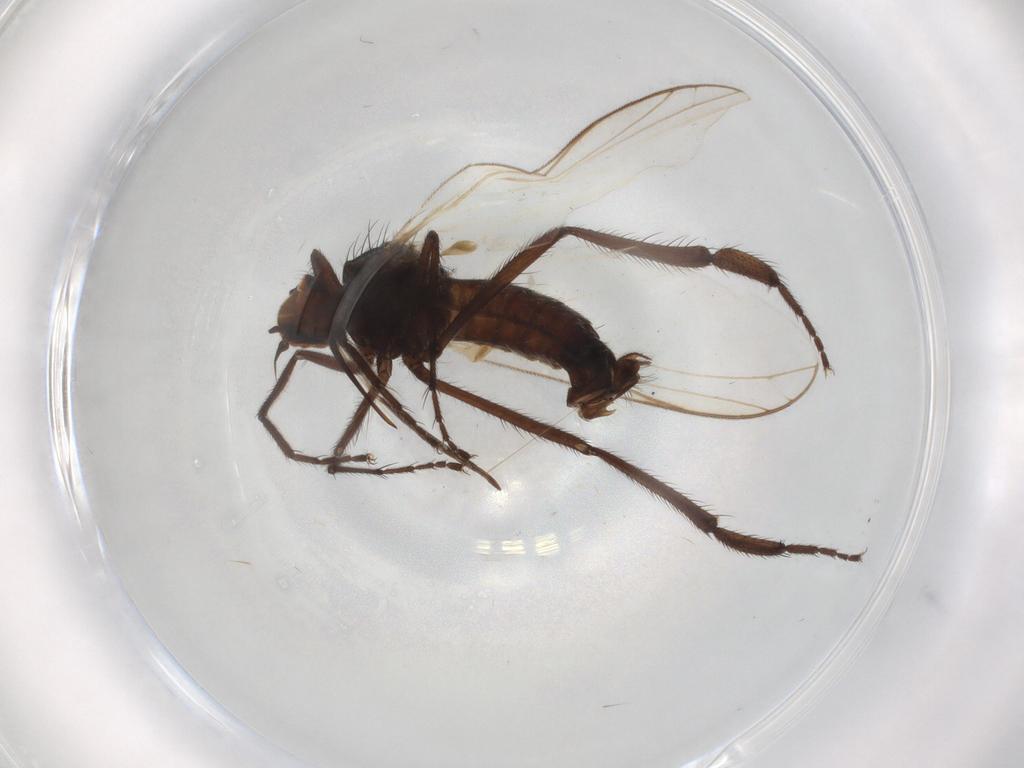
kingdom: Animalia
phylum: Arthropoda
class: Insecta
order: Diptera
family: Empididae
